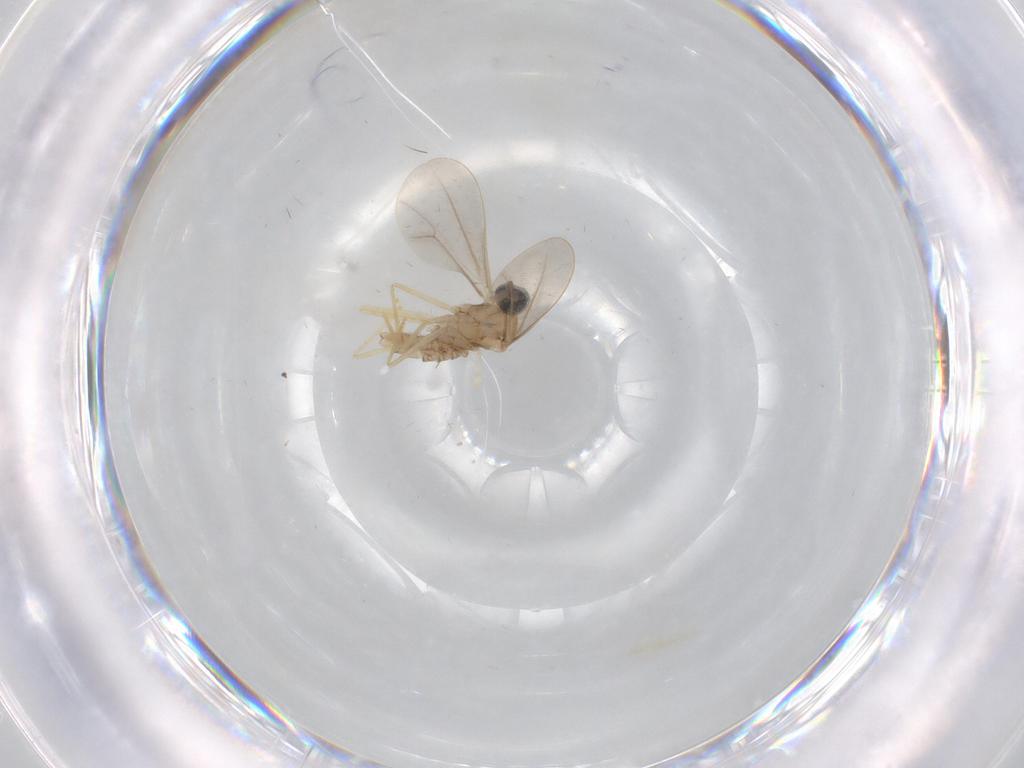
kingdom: Animalia
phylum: Arthropoda
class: Insecta
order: Diptera
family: Cecidomyiidae
